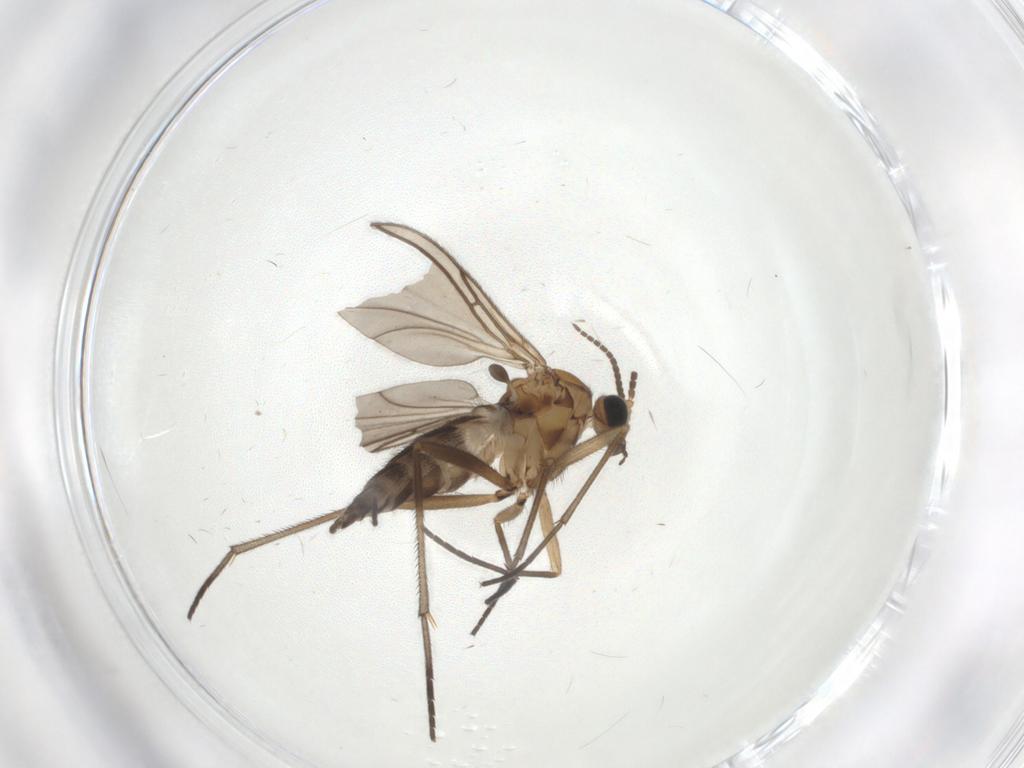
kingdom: Animalia
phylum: Arthropoda
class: Insecta
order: Diptera
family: Sciaridae
